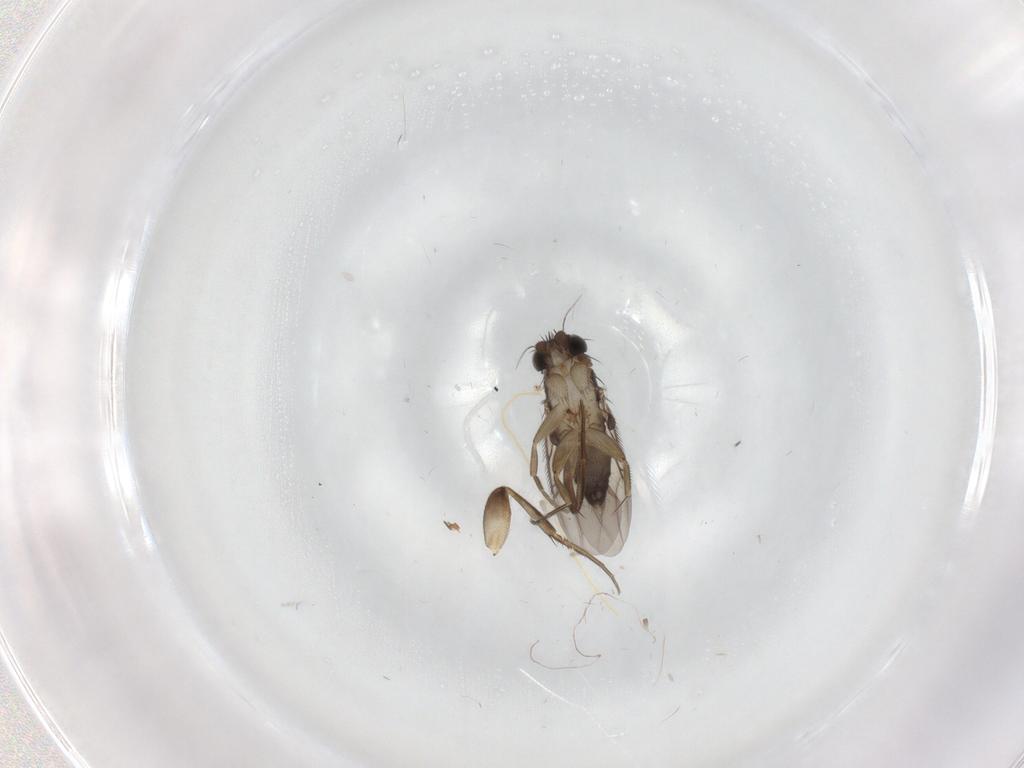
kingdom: Animalia
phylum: Arthropoda
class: Insecta
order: Diptera
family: Phoridae
